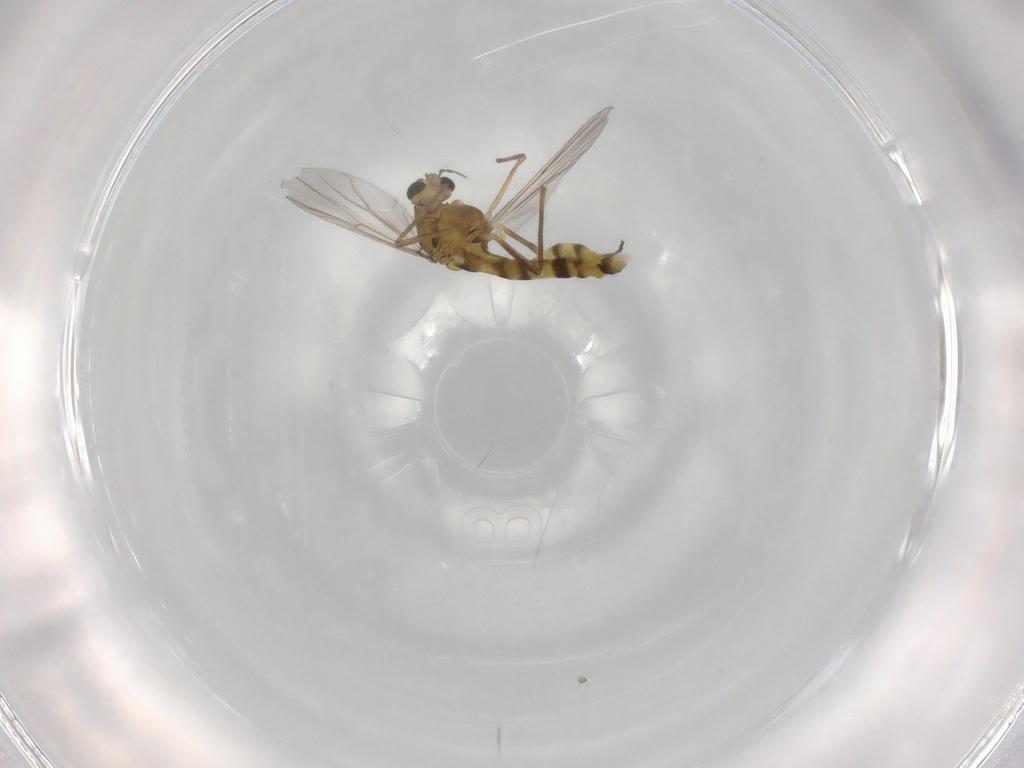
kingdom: Animalia
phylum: Arthropoda
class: Insecta
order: Diptera
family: Chironomidae
